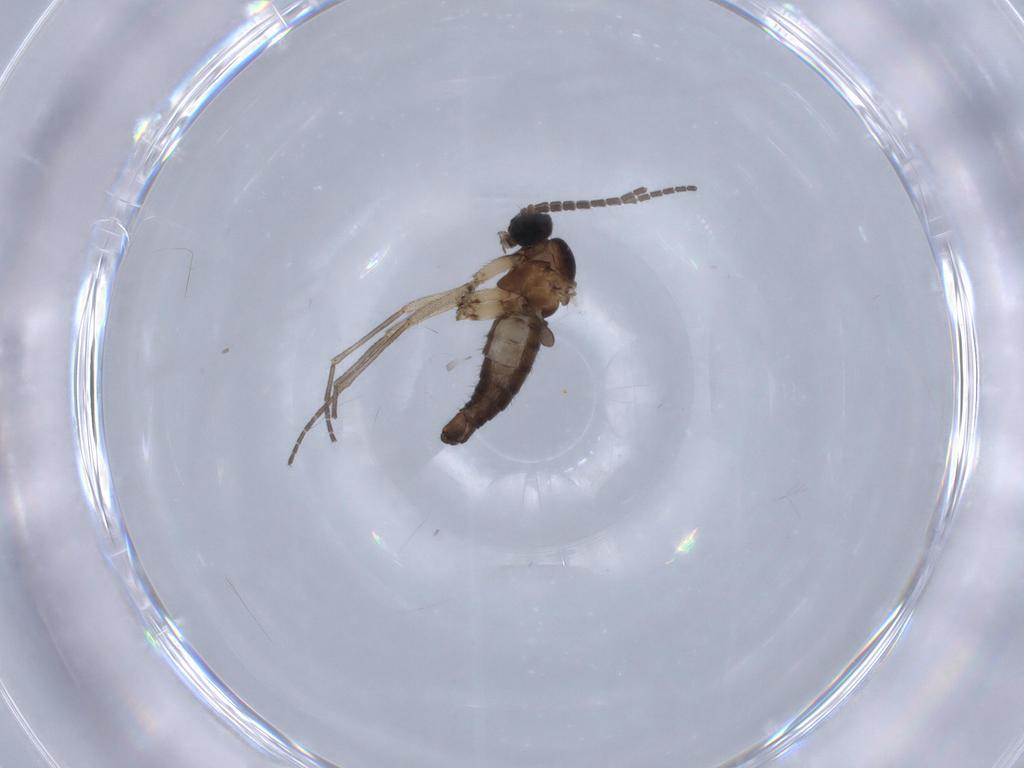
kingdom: Animalia
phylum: Arthropoda
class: Insecta
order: Diptera
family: Sciaridae
